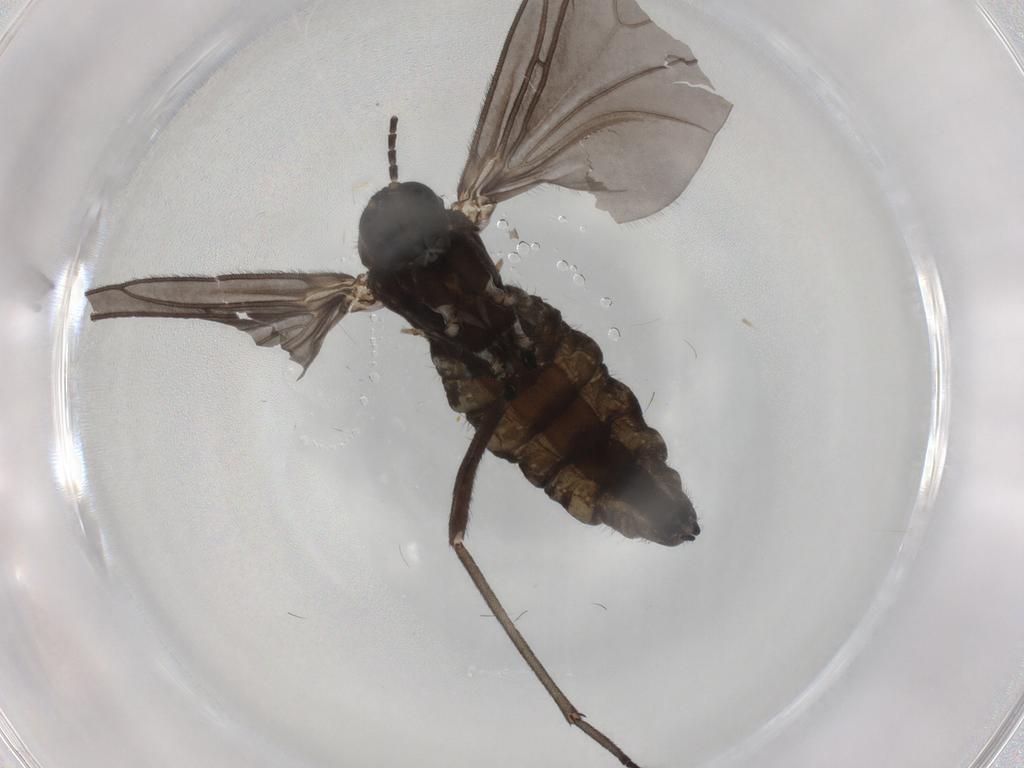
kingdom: Animalia
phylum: Arthropoda
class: Insecta
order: Diptera
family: Sciaridae
